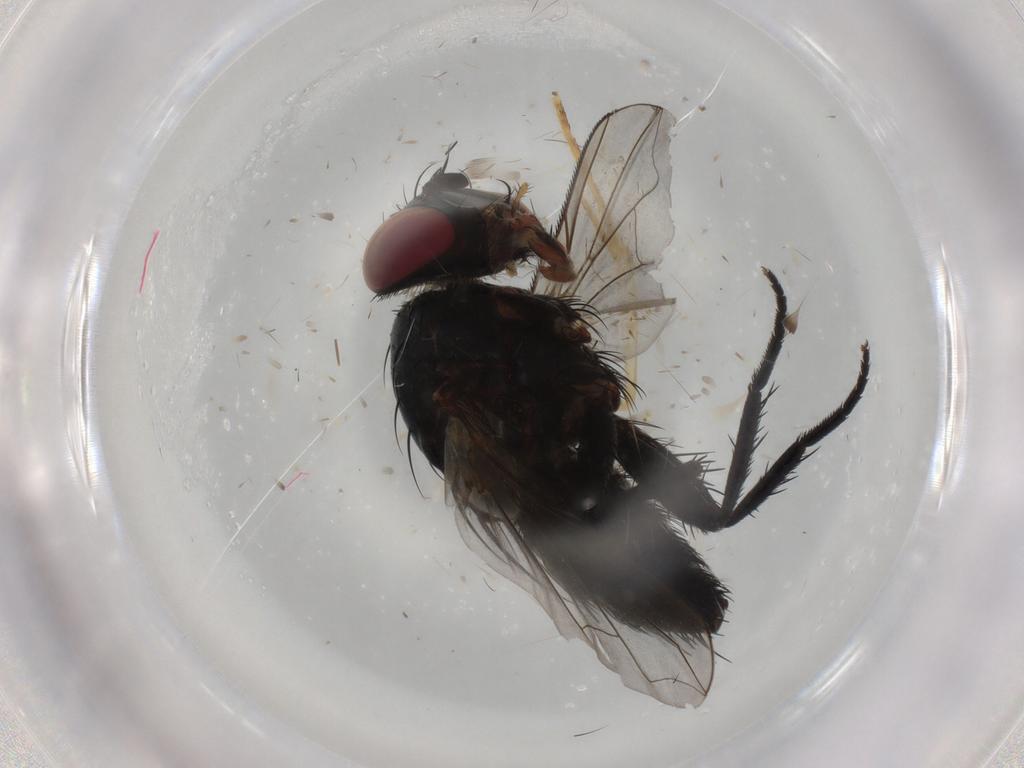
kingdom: Animalia
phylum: Arthropoda
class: Insecta
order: Diptera
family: Tachinidae
